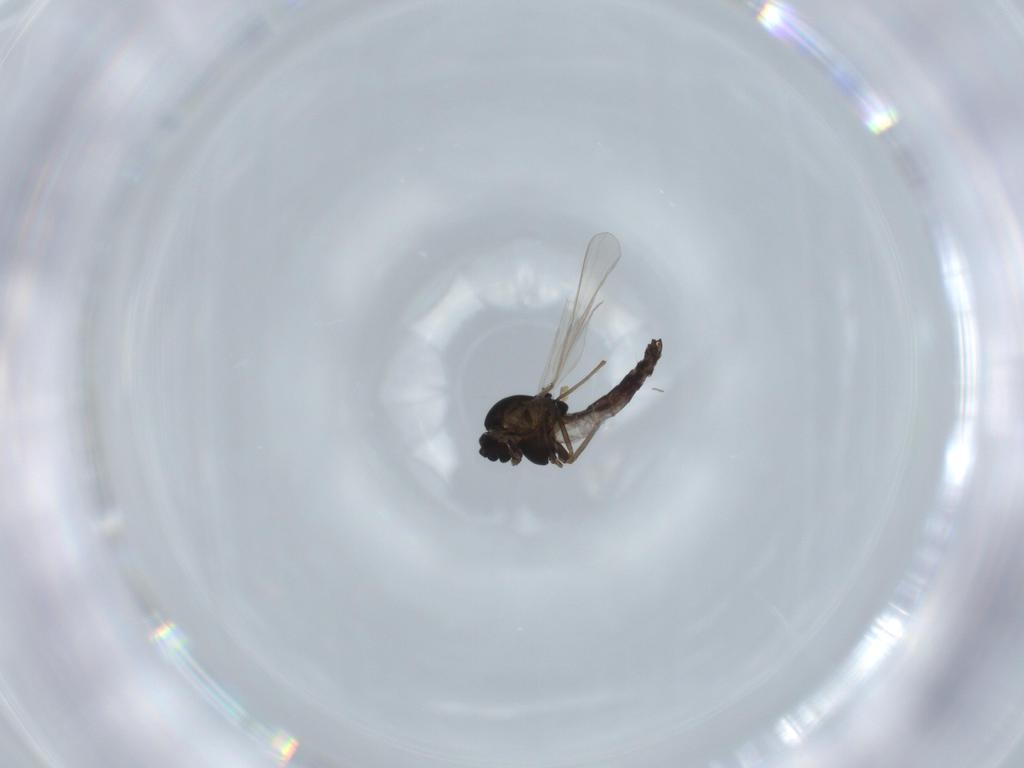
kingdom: Animalia
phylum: Arthropoda
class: Insecta
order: Diptera
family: Chironomidae
